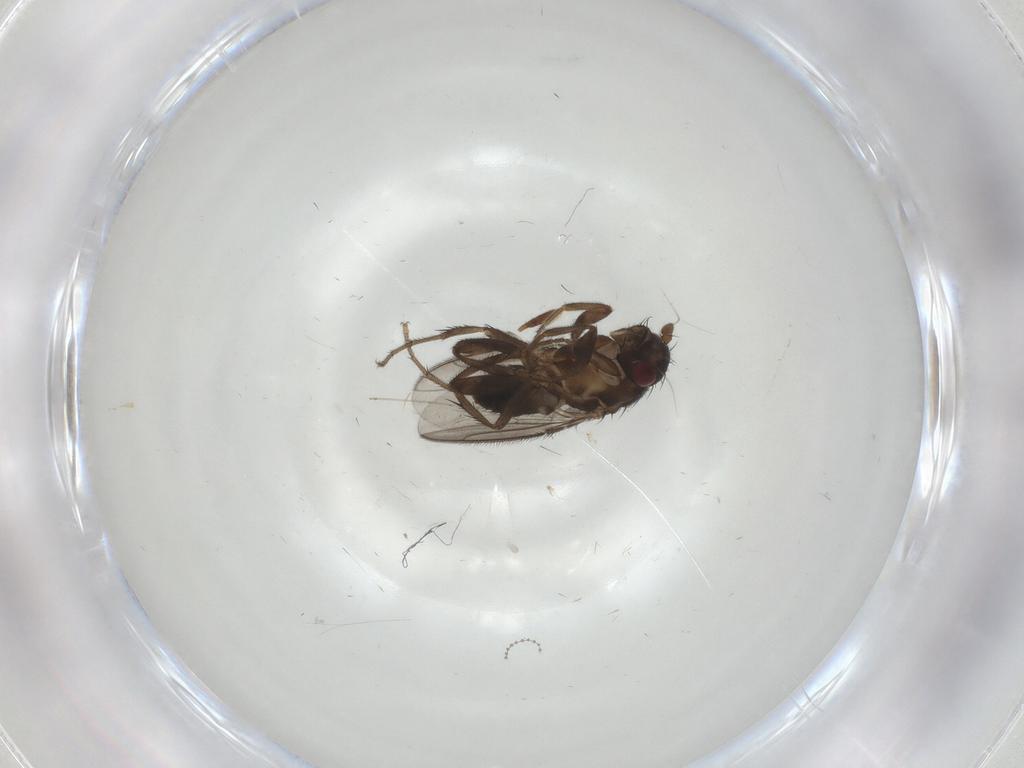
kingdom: Animalia
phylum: Arthropoda
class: Insecta
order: Diptera
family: Sphaeroceridae
